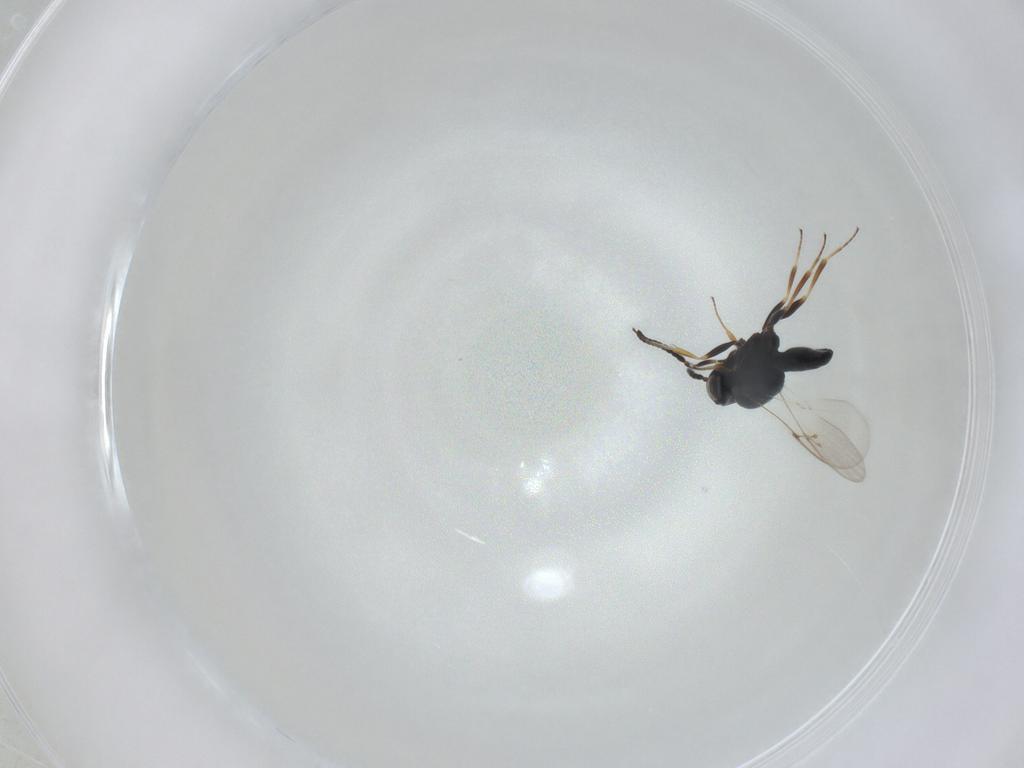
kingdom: Animalia
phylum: Arthropoda
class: Insecta
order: Hymenoptera
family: Scelionidae
